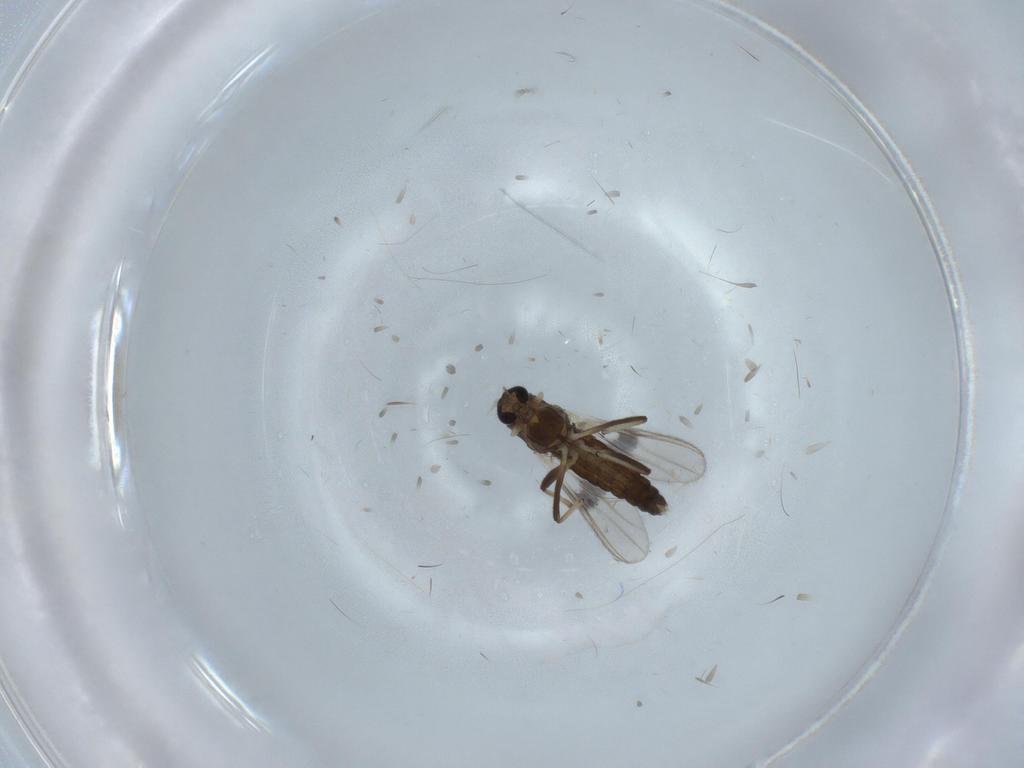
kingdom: Animalia
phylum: Arthropoda
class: Insecta
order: Diptera
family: Chironomidae
